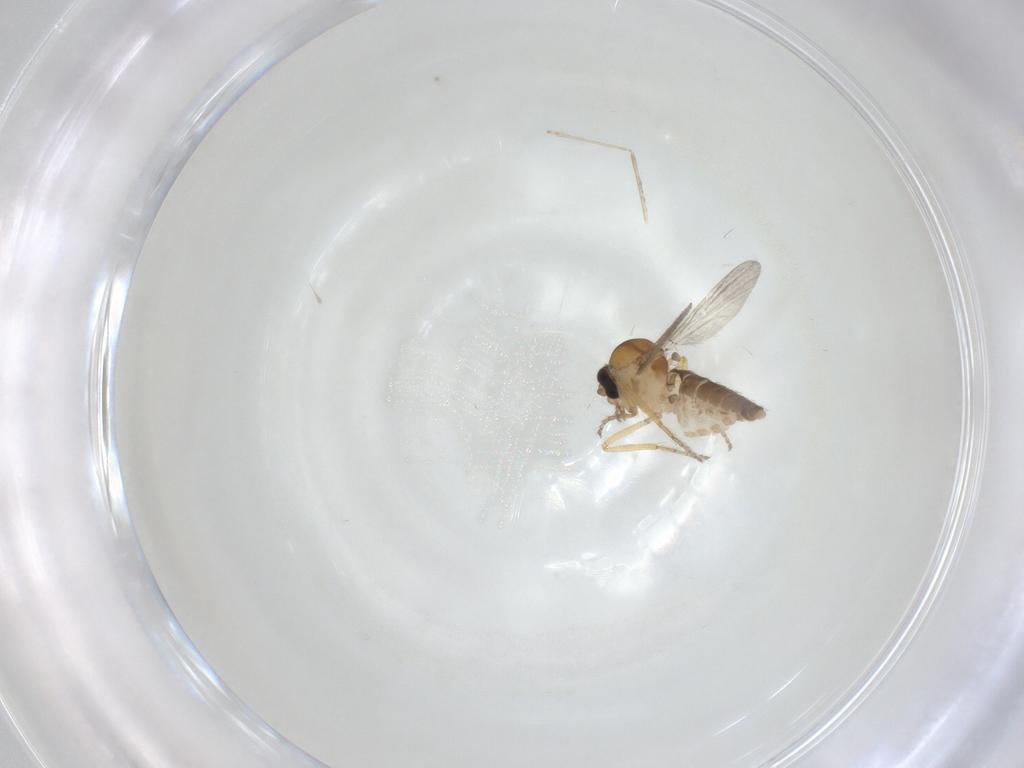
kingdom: Animalia
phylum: Arthropoda
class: Insecta
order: Diptera
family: Ceratopogonidae
